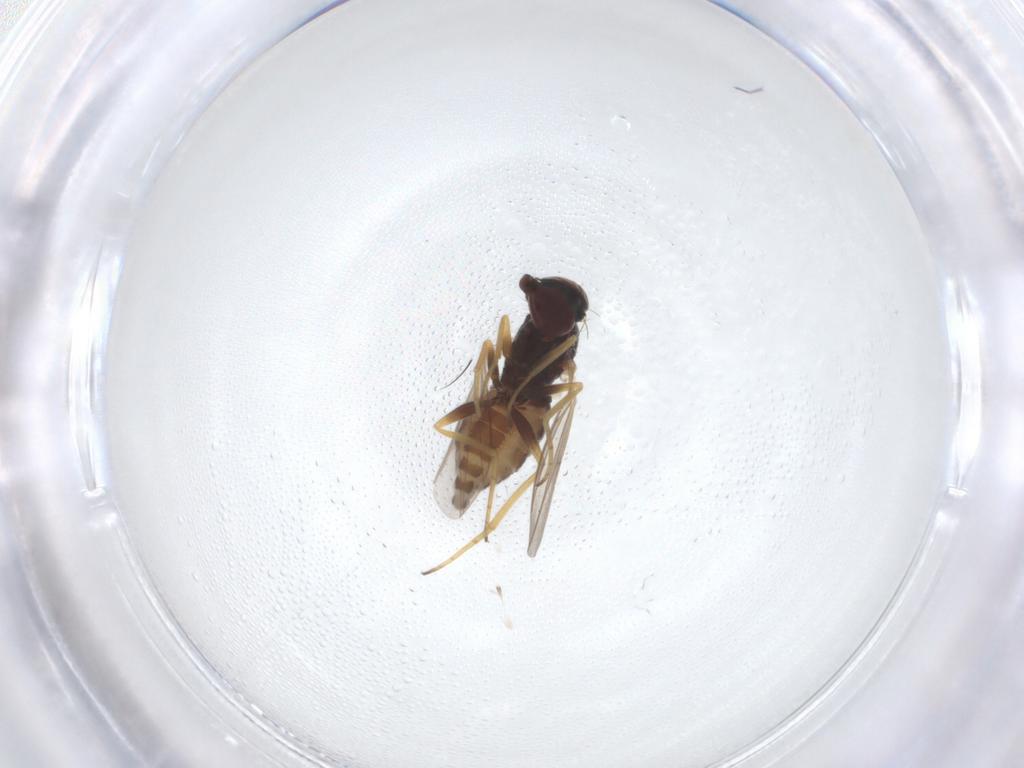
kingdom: Animalia
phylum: Arthropoda
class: Insecta
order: Diptera
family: Dolichopodidae
